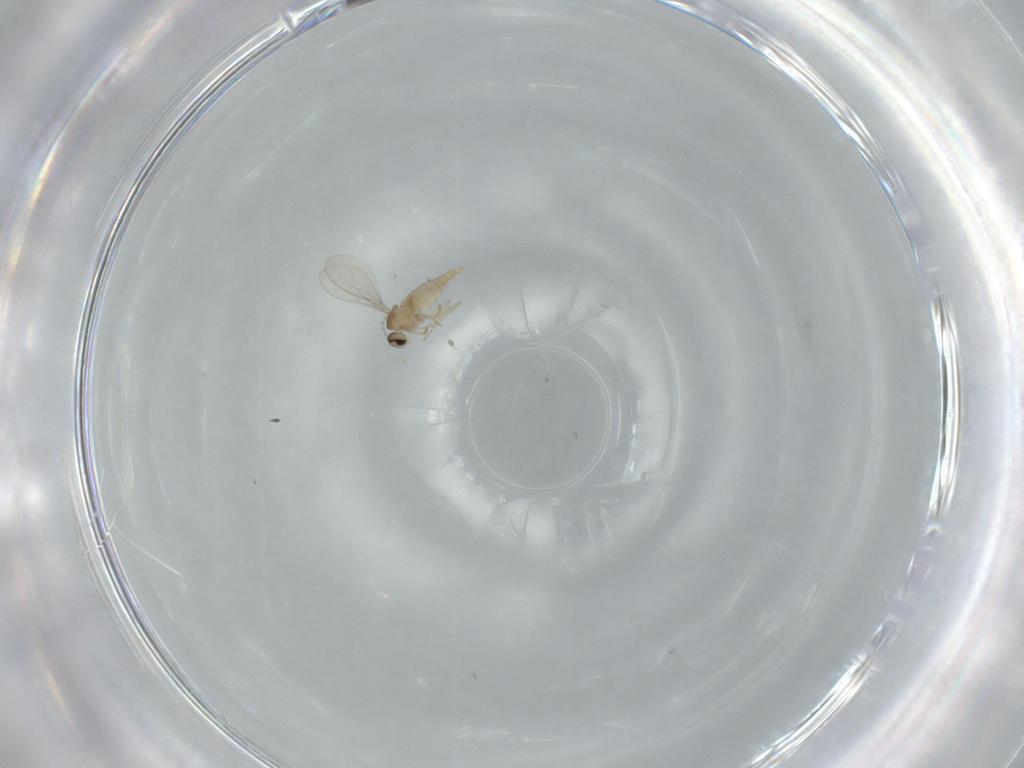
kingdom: Animalia
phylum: Arthropoda
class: Insecta
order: Diptera
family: Cecidomyiidae
